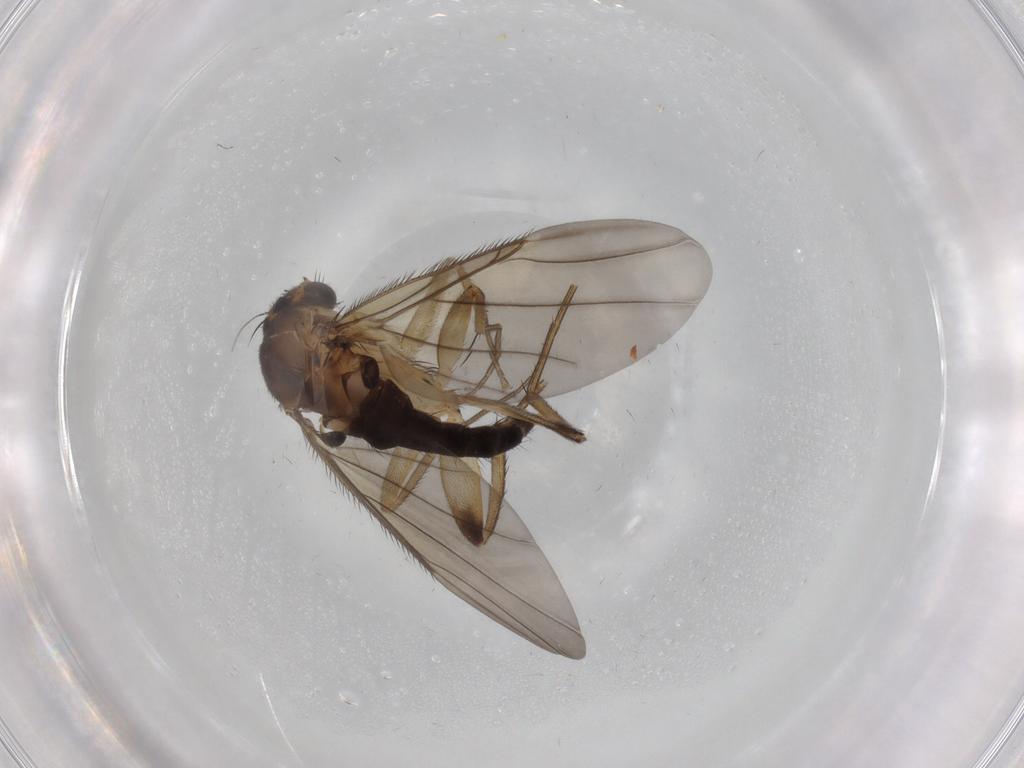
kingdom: Animalia
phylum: Arthropoda
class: Insecta
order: Diptera
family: Phoridae
